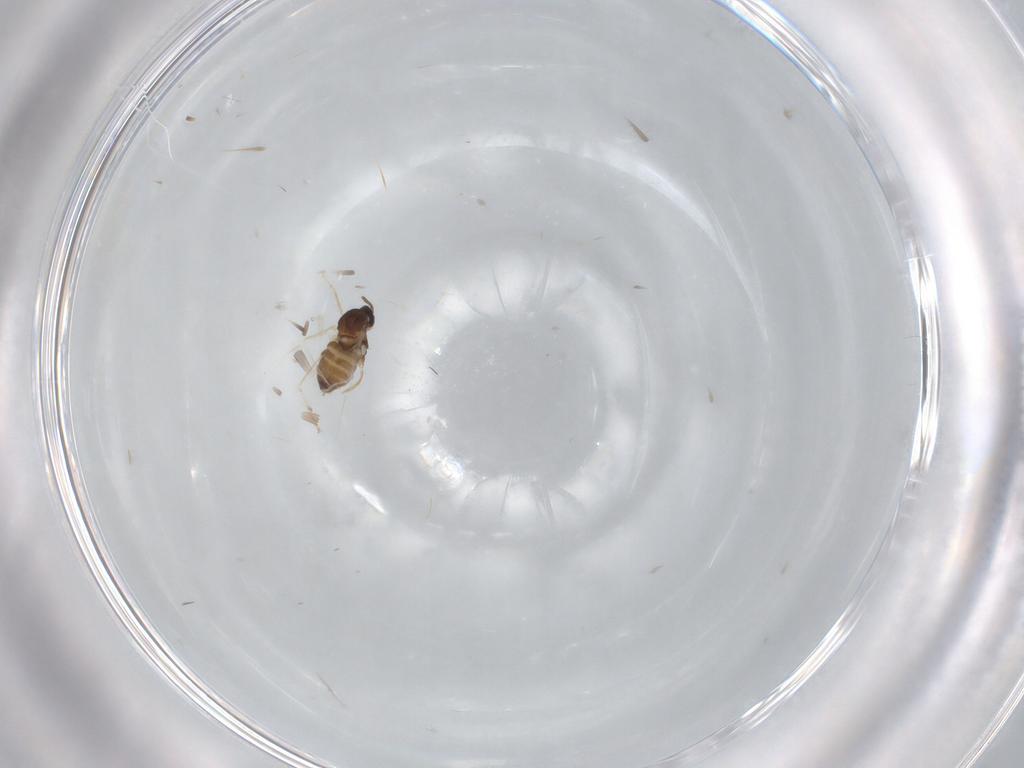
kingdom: Animalia
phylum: Arthropoda
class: Insecta
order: Diptera
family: Cecidomyiidae
